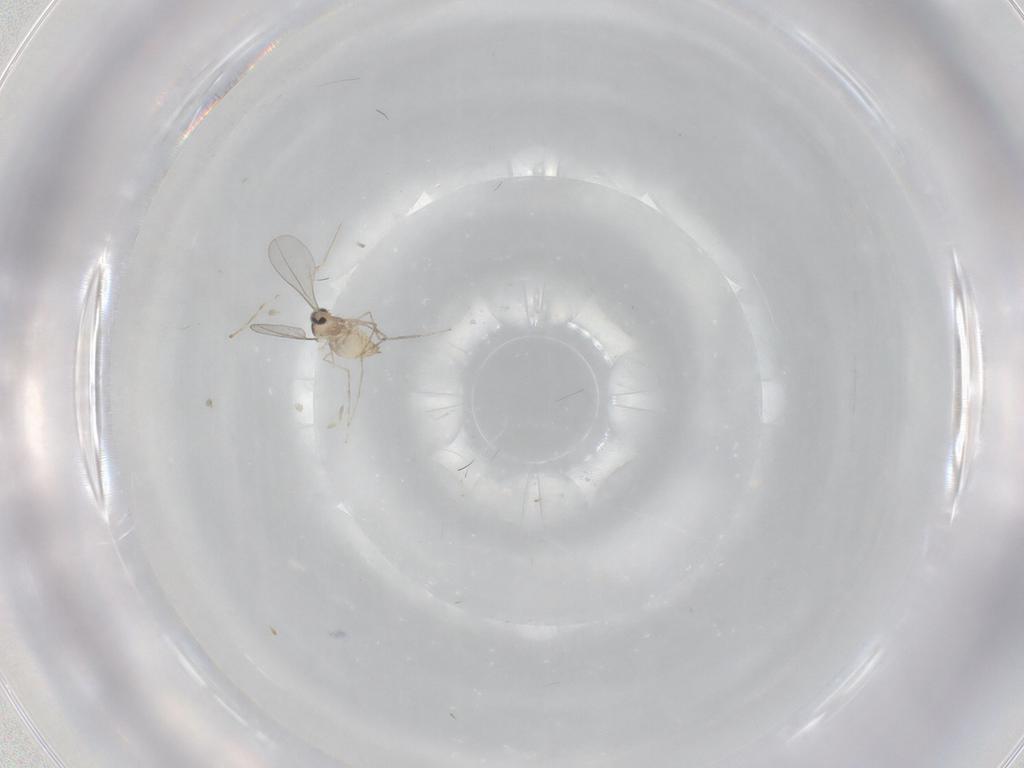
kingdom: Animalia
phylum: Arthropoda
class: Insecta
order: Diptera
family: Cecidomyiidae
